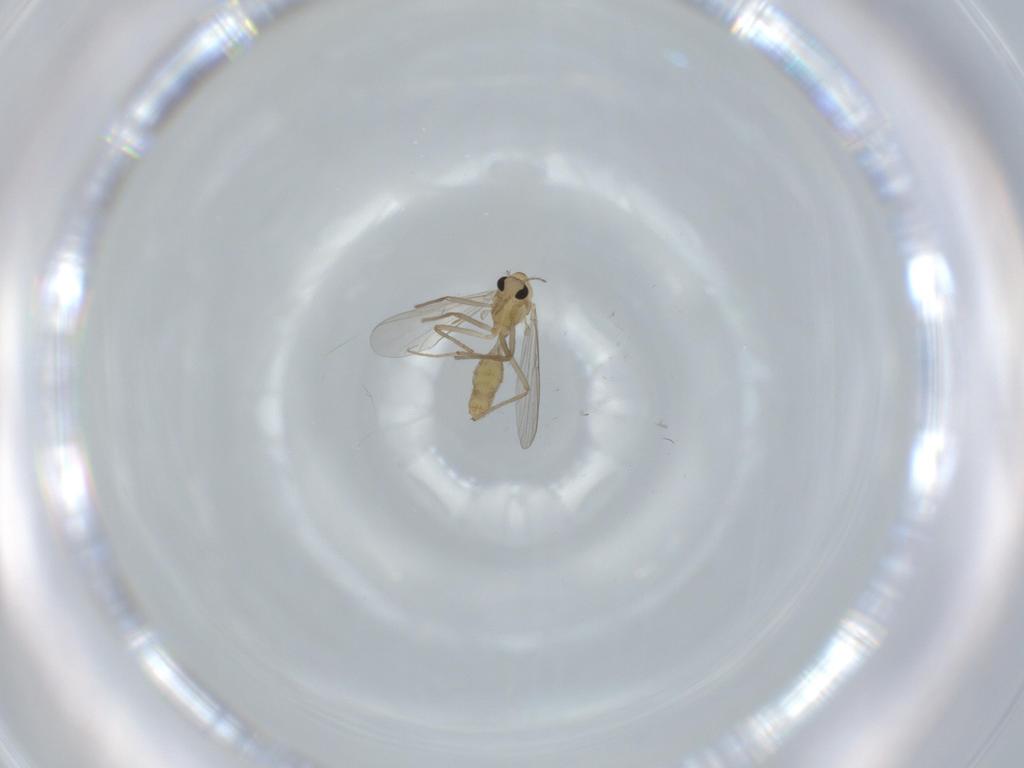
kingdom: Animalia
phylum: Arthropoda
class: Insecta
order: Diptera
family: Chironomidae
